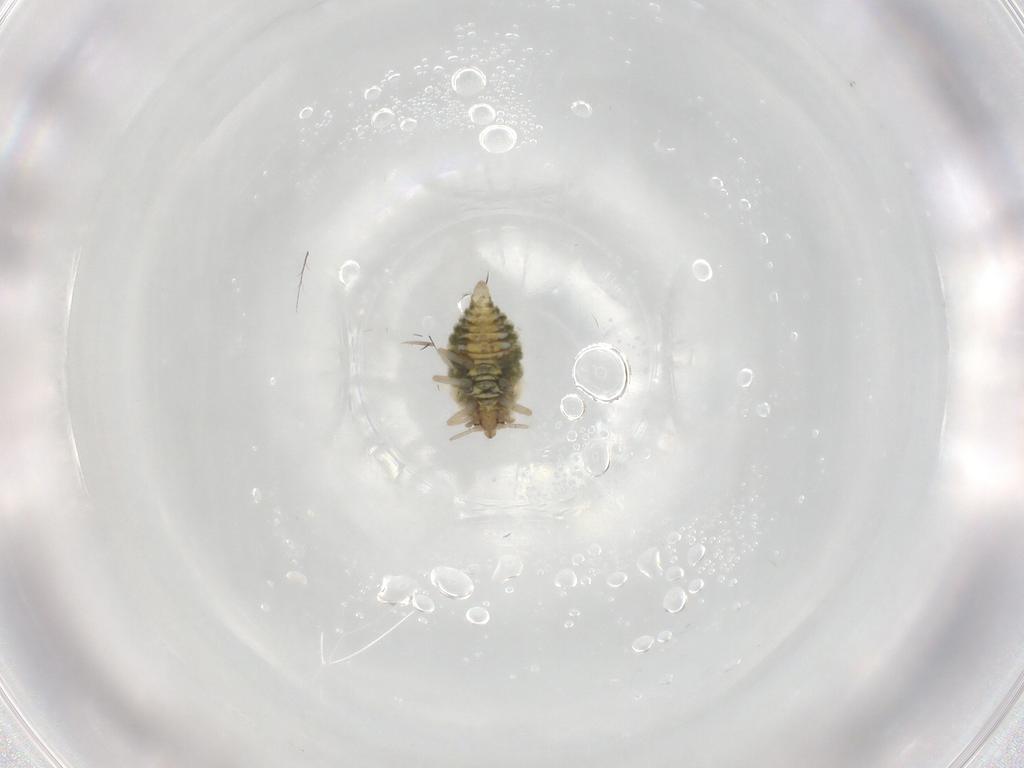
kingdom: Animalia
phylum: Arthropoda
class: Insecta
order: Neuroptera
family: Coniopterygidae
